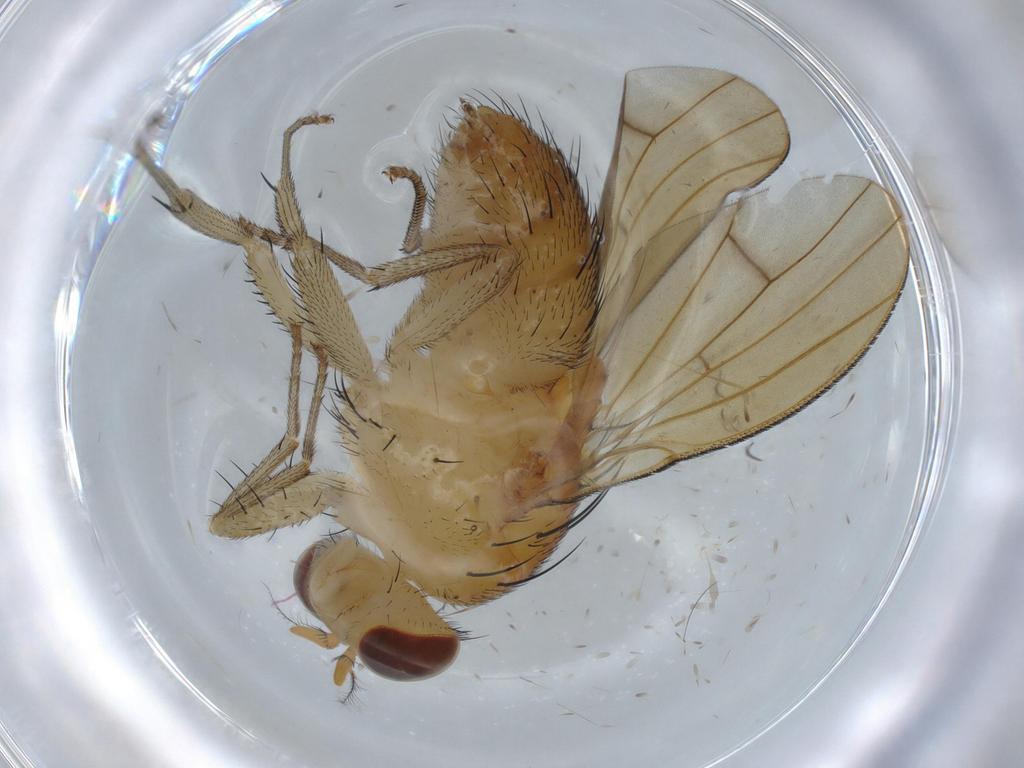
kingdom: Animalia
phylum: Arthropoda
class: Insecta
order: Diptera
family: Lauxaniidae
